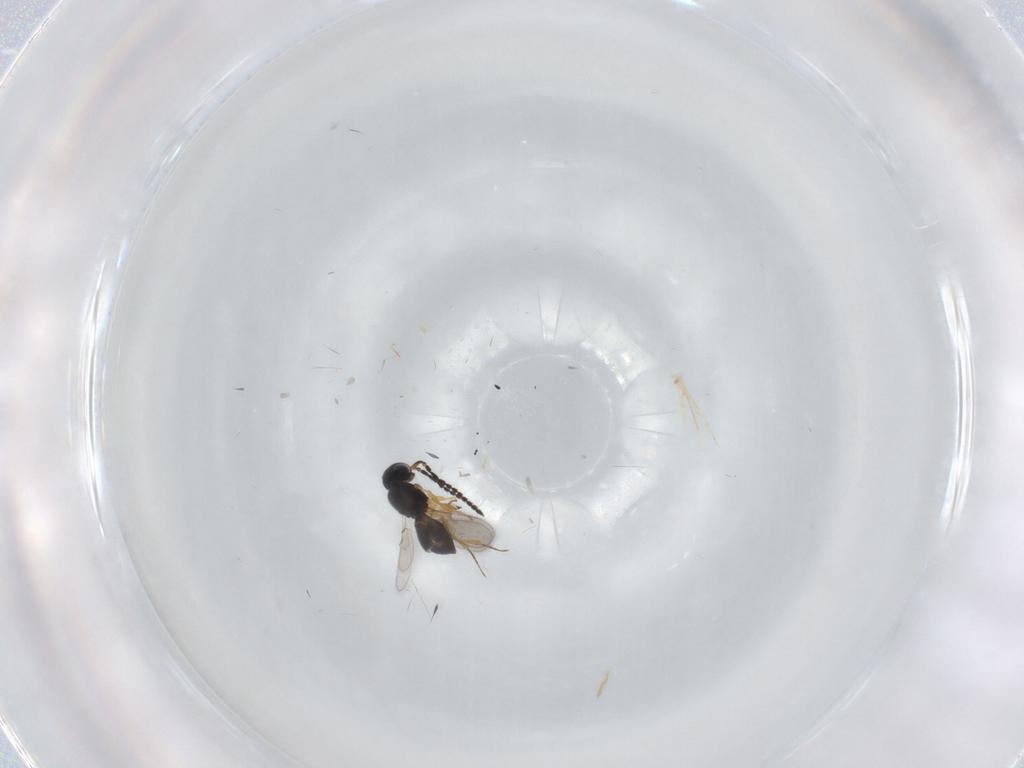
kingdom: Animalia
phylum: Arthropoda
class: Insecta
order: Hymenoptera
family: Scelionidae
